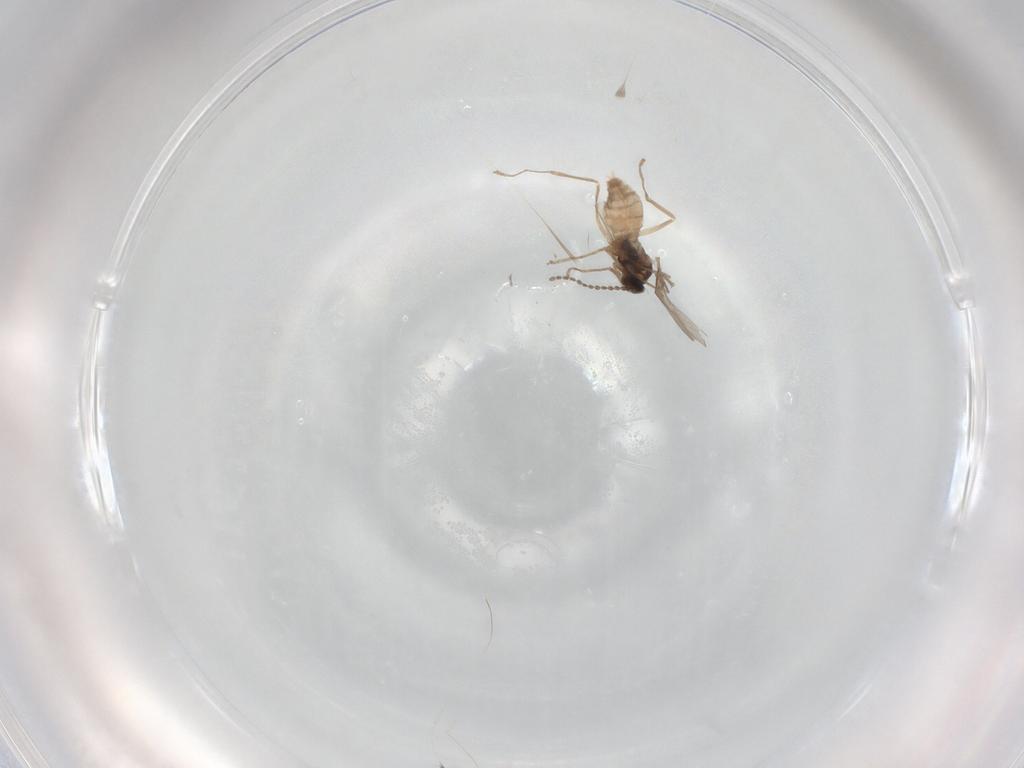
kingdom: Animalia
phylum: Arthropoda
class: Insecta
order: Diptera
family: Cecidomyiidae
